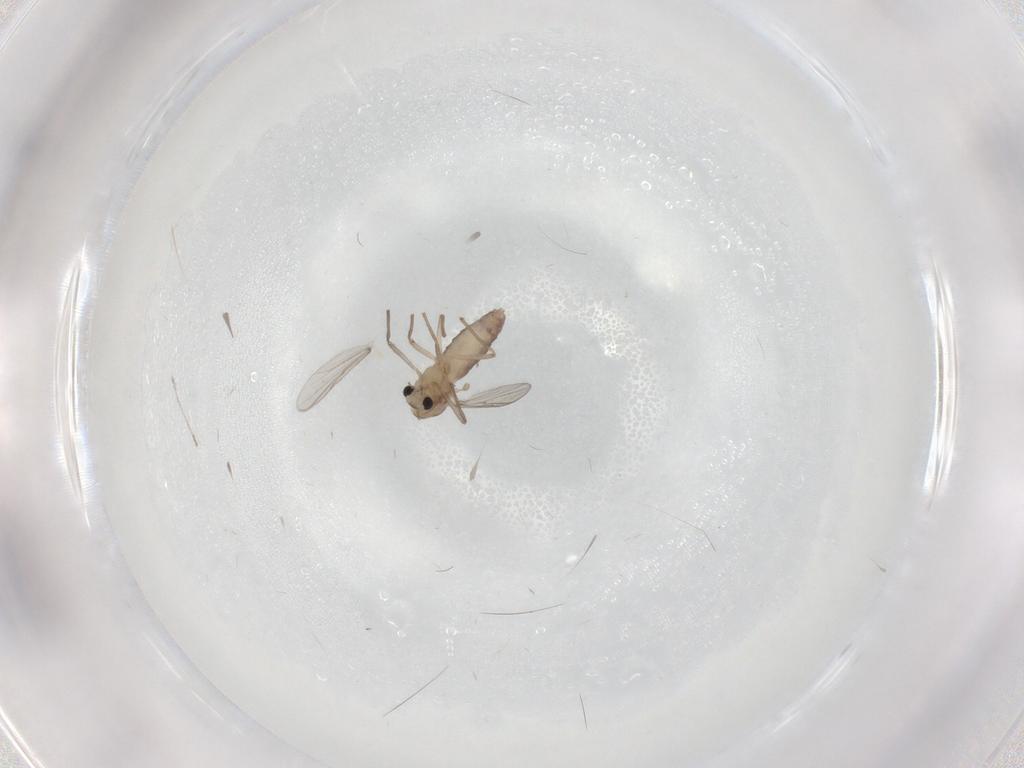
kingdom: Animalia
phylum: Arthropoda
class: Insecta
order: Diptera
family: Chironomidae
